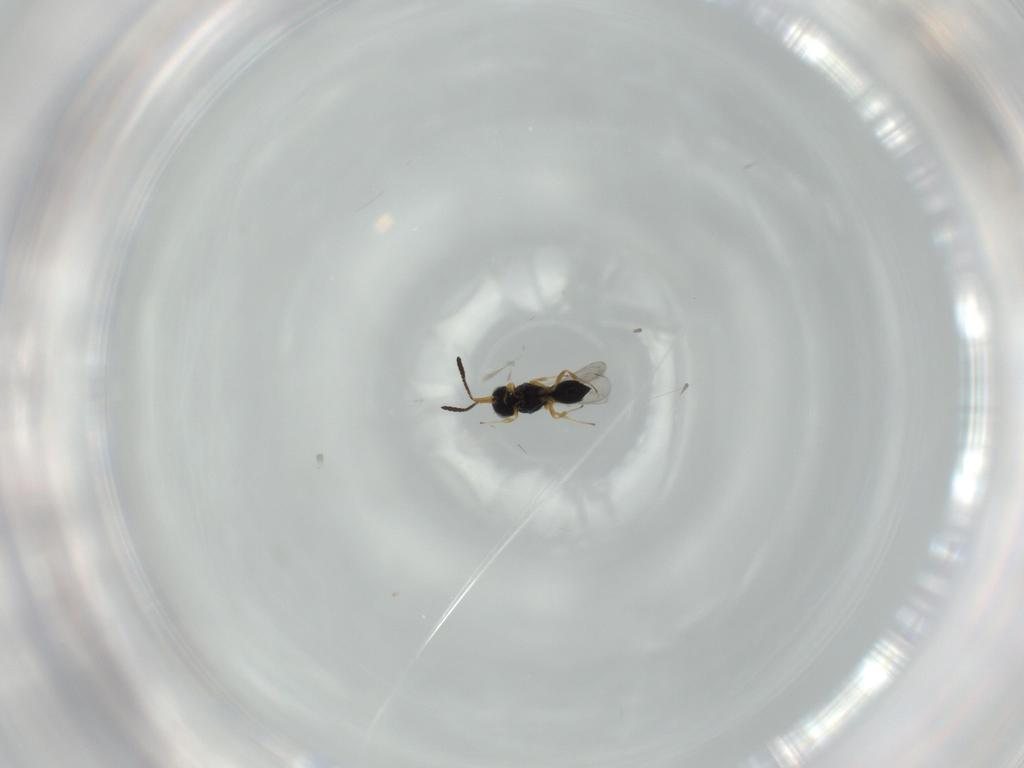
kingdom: Animalia
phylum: Arthropoda
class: Insecta
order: Hymenoptera
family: Scelionidae
